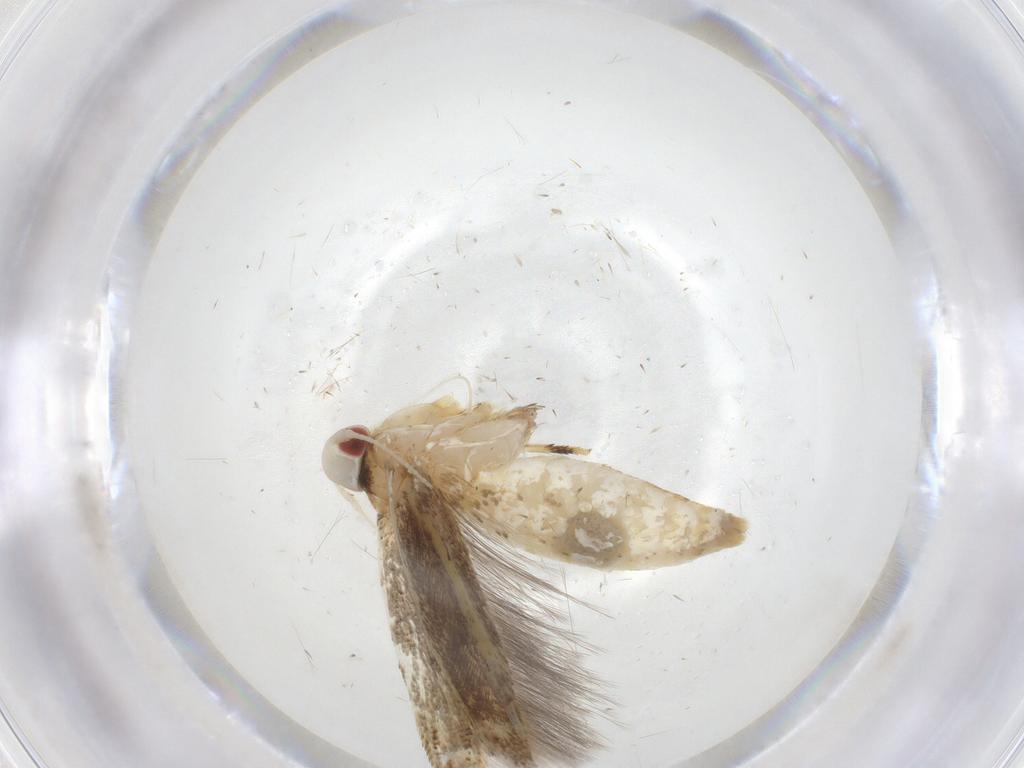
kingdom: Animalia
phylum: Arthropoda
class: Insecta
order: Lepidoptera
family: Cosmopterigidae
